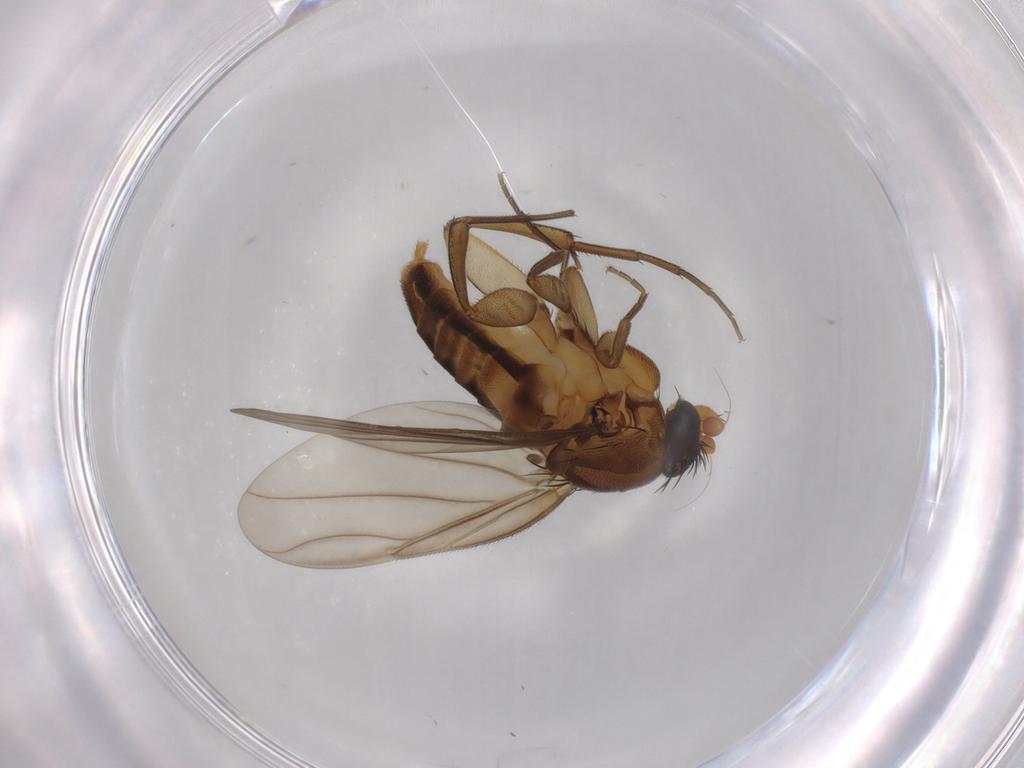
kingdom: Animalia
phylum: Arthropoda
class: Insecta
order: Diptera
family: Phoridae
